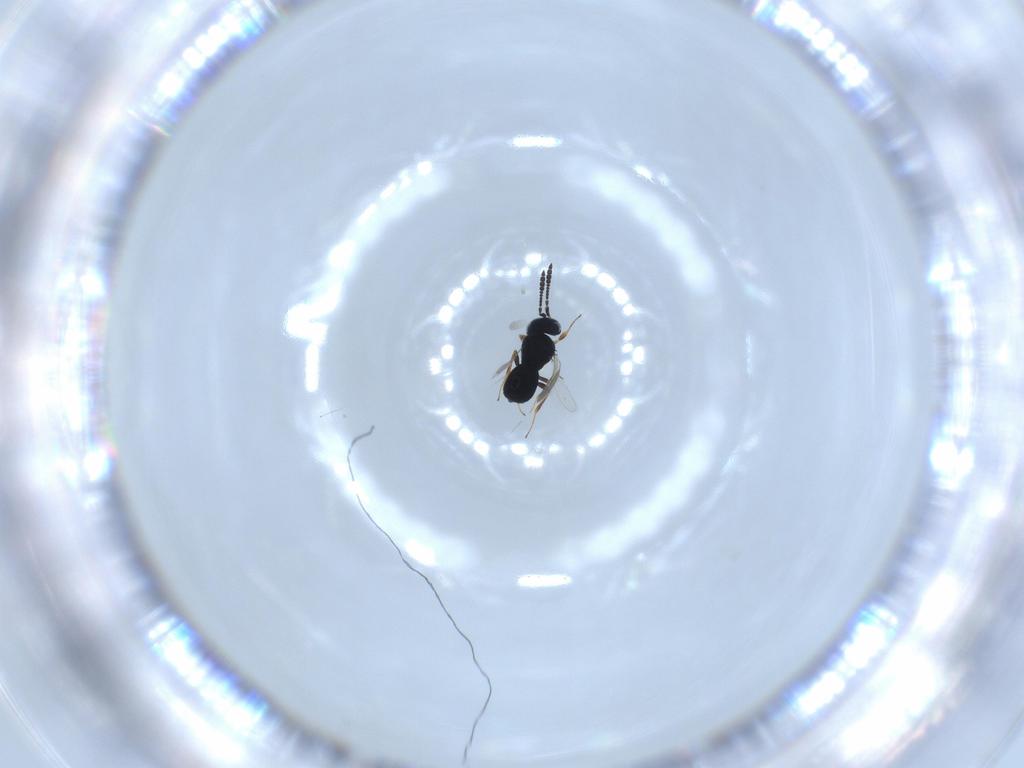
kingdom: Animalia
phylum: Arthropoda
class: Insecta
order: Hymenoptera
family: Scelionidae
